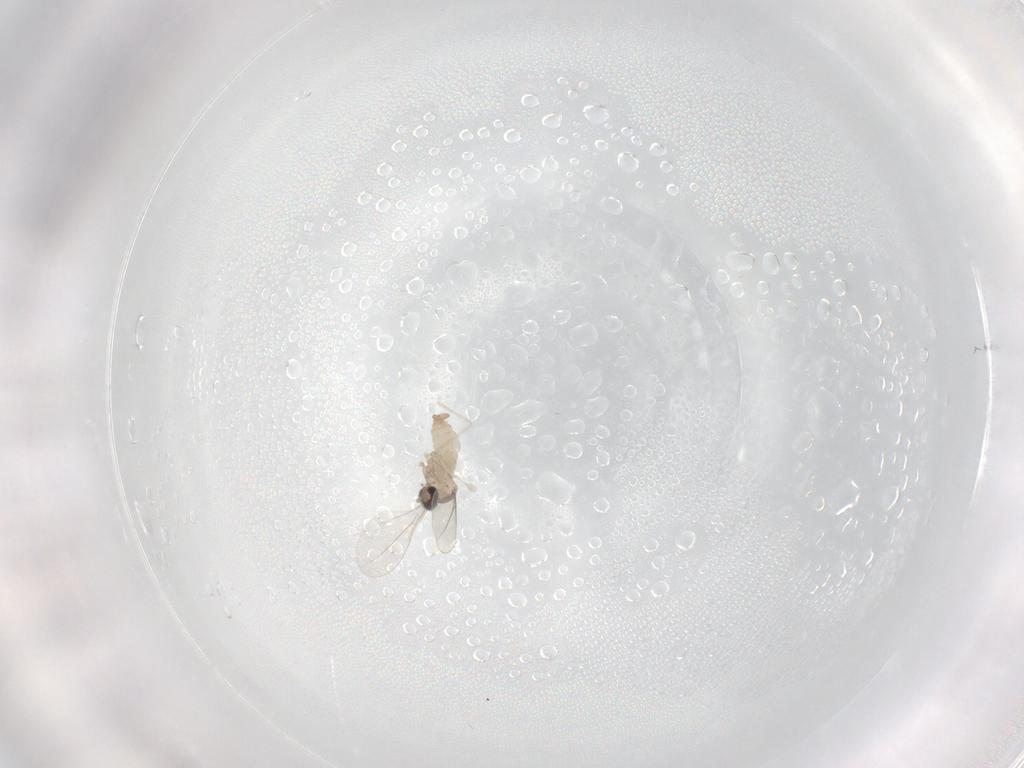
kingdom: Animalia
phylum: Arthropoda
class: Insecta
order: Diptera
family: Cecidomyiidae
